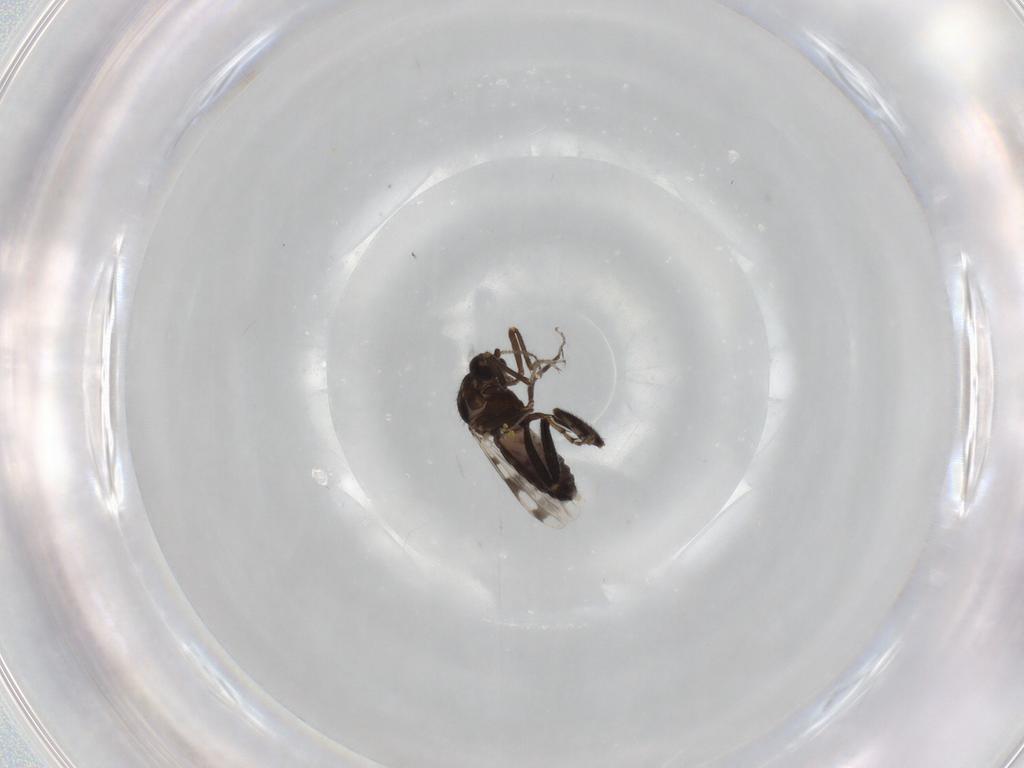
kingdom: Animalia
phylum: Arthropoda
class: Insecta
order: Diptera
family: Ceratopogonidae
